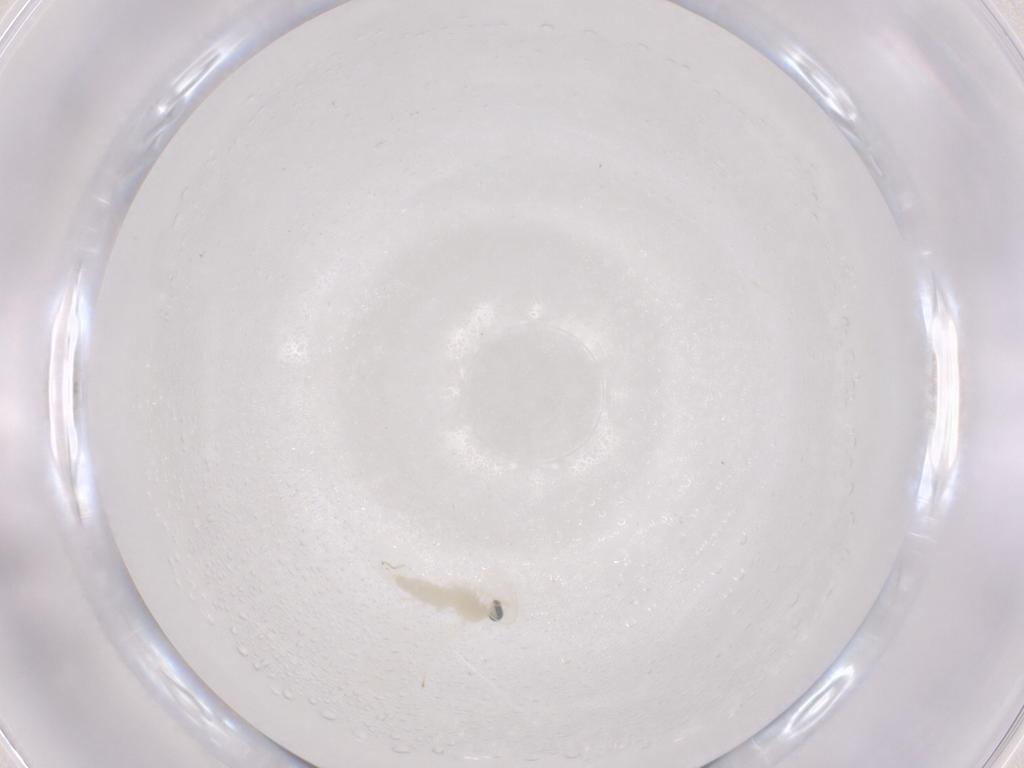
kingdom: Animalia
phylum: Arthropoda
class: Insecta
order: Diptera
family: Cecidomyiidae
